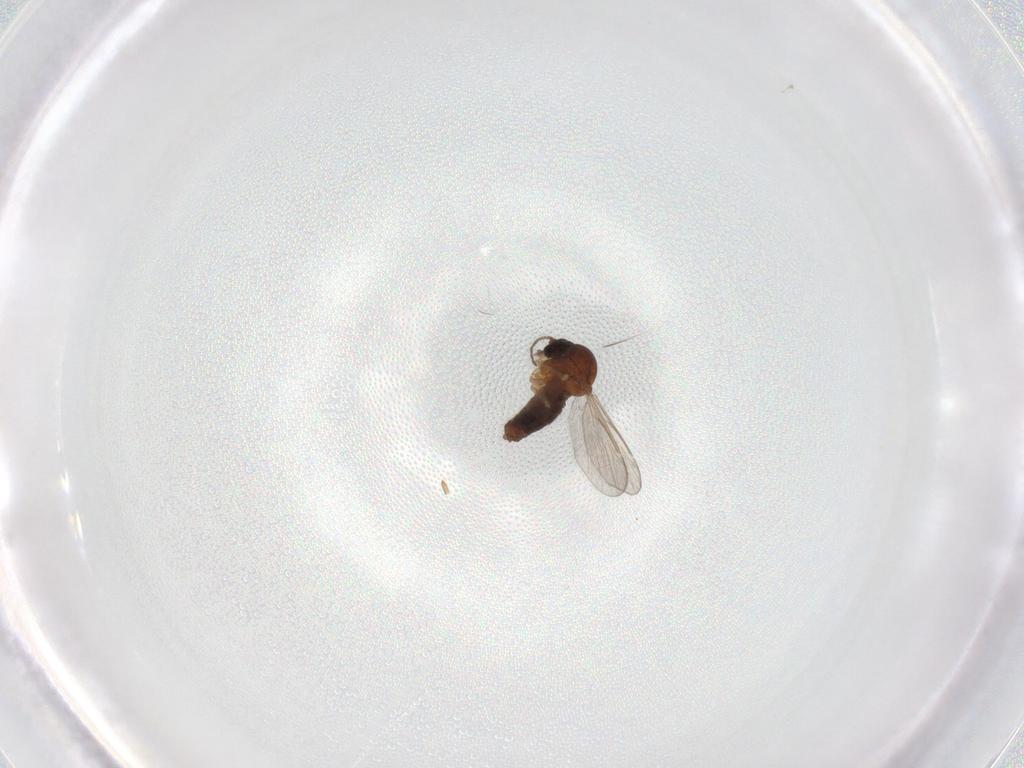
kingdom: Animalia
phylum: Arthropoda
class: Insecta
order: Diptera
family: Ceratopogonidae
